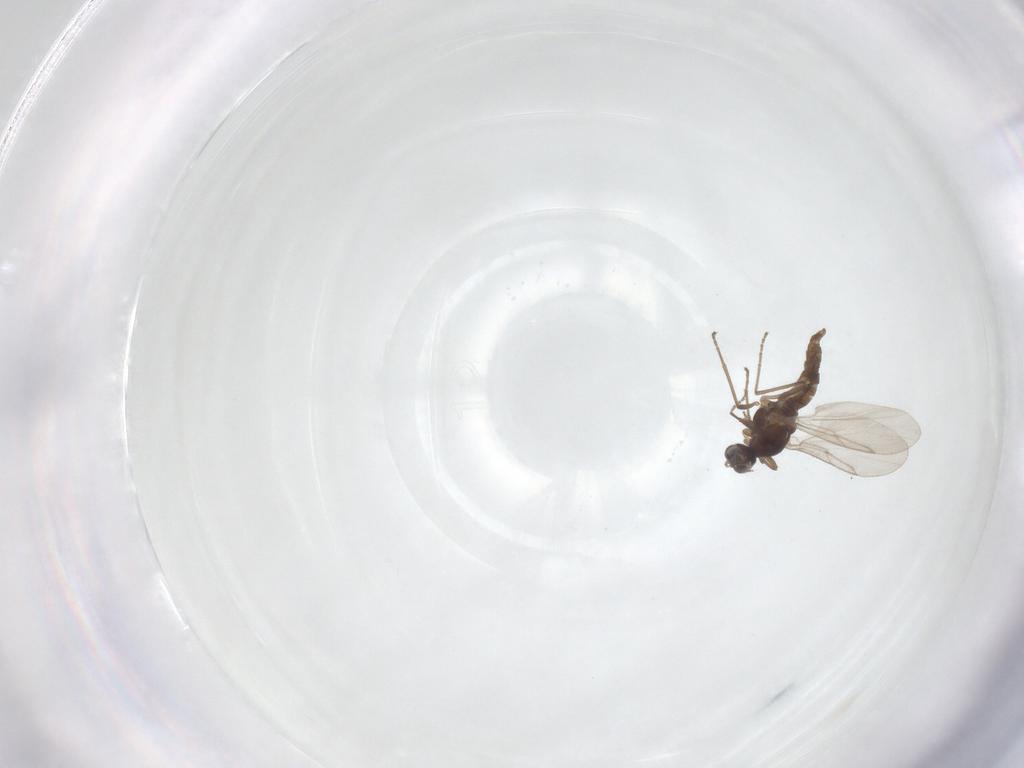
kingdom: Animalia
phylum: Arthropoda
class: Insecta
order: Diptera
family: Cecidomyiidae
